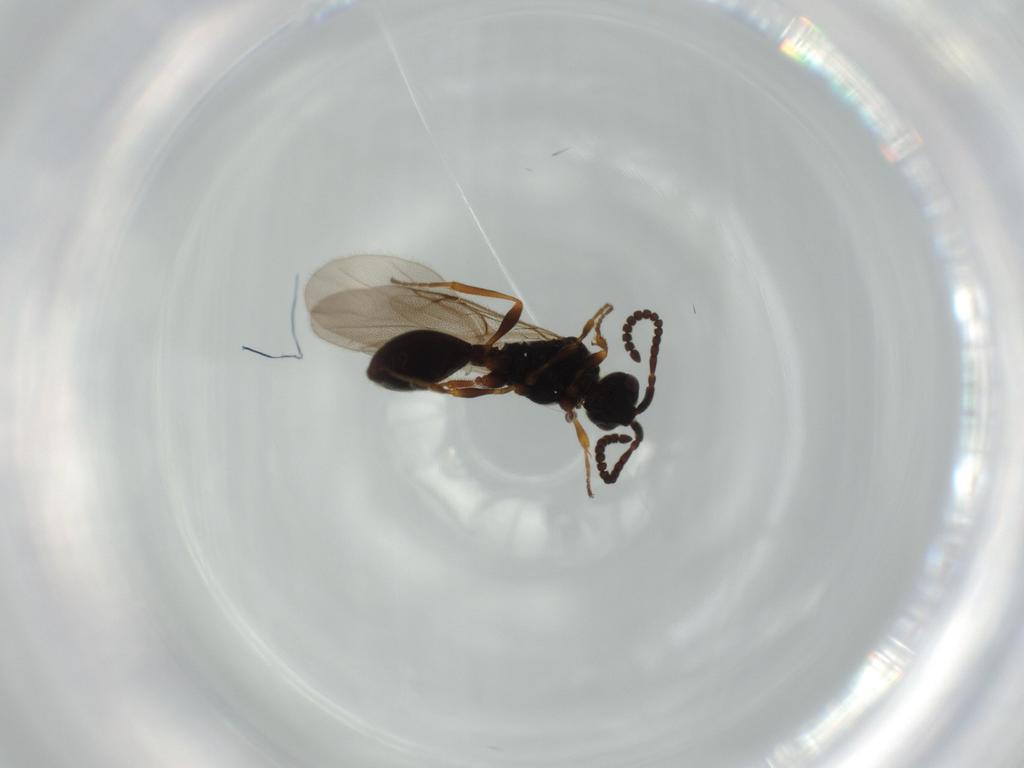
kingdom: Animalia
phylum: Arthropoda
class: Insecta
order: Hymenoptera
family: Ichneumonidae
